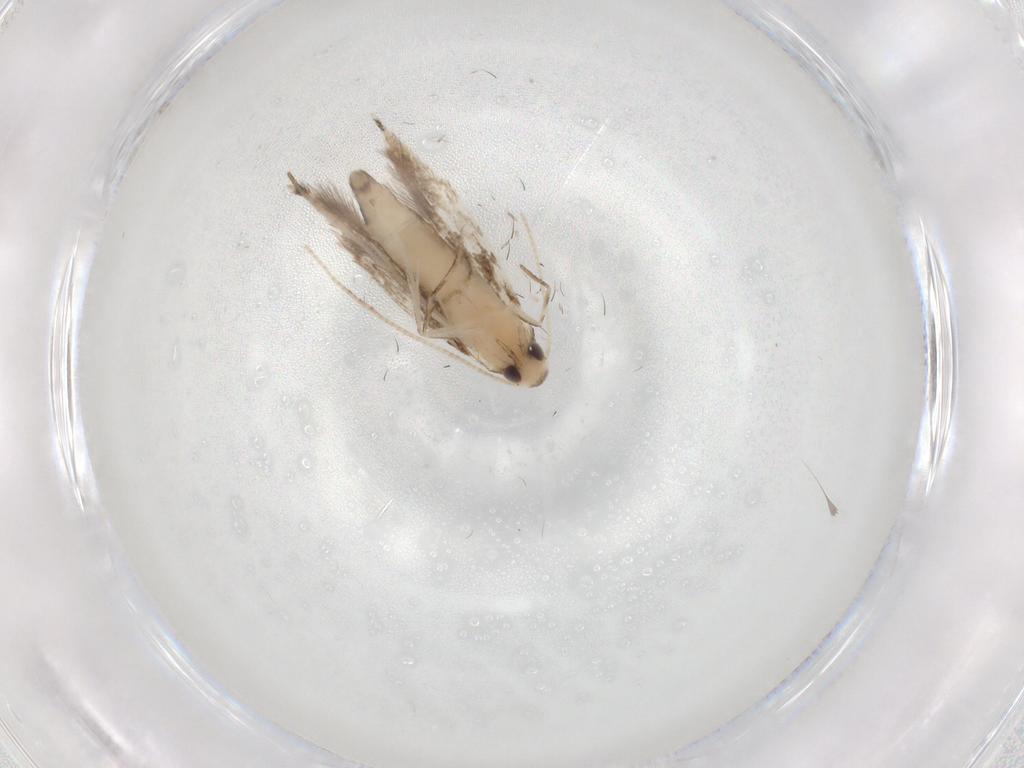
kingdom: Animalia
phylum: Arthropoda
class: Insecta
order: Lepidoptera
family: Gracillariidae
